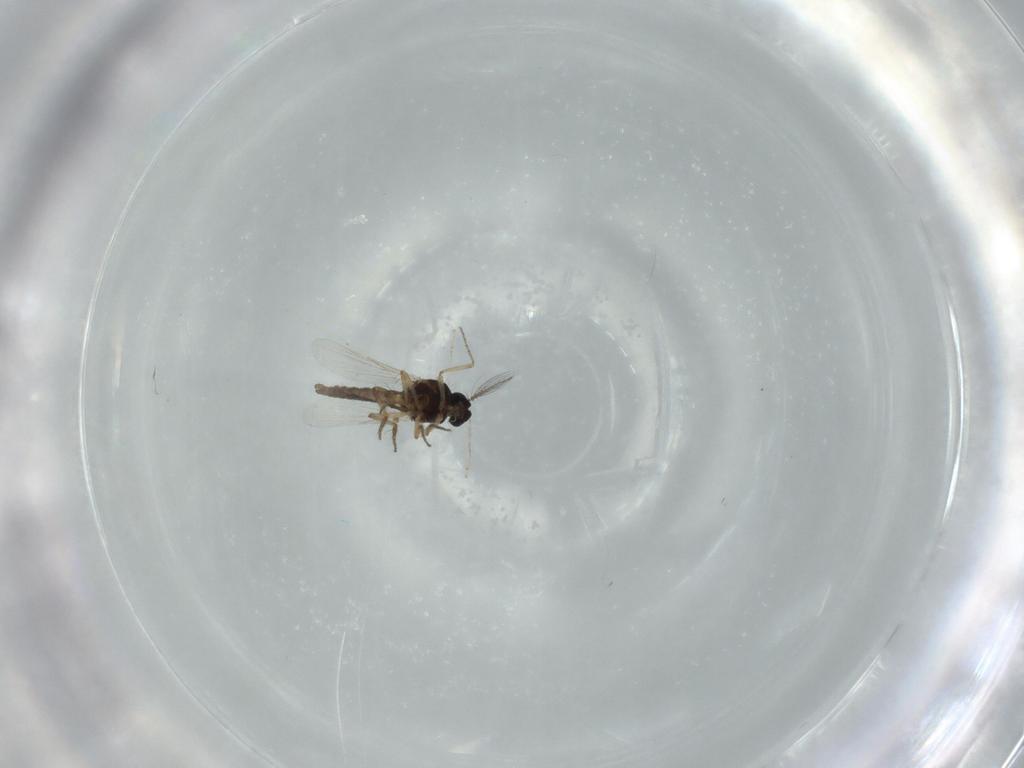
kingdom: Animalia
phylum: Arthropoda
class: Insecta
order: Diptera
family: Ceratopogonidae
